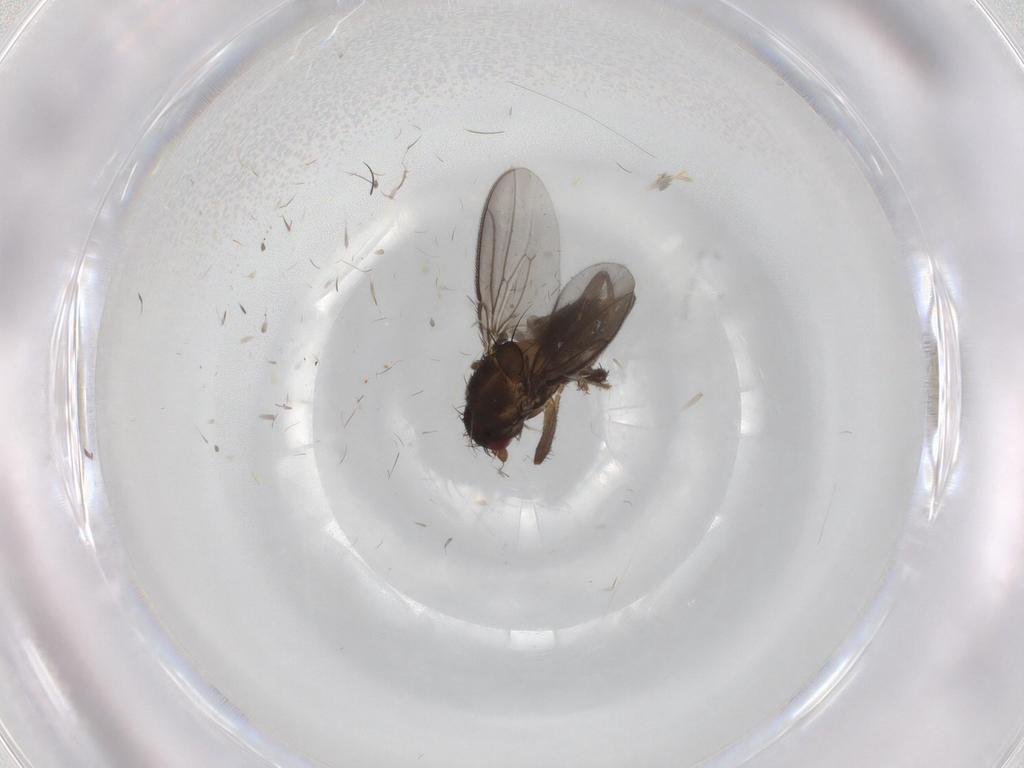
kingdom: Animalia
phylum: Arthropoda
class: Insecta
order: Diptera
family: Sphaeroceridae
